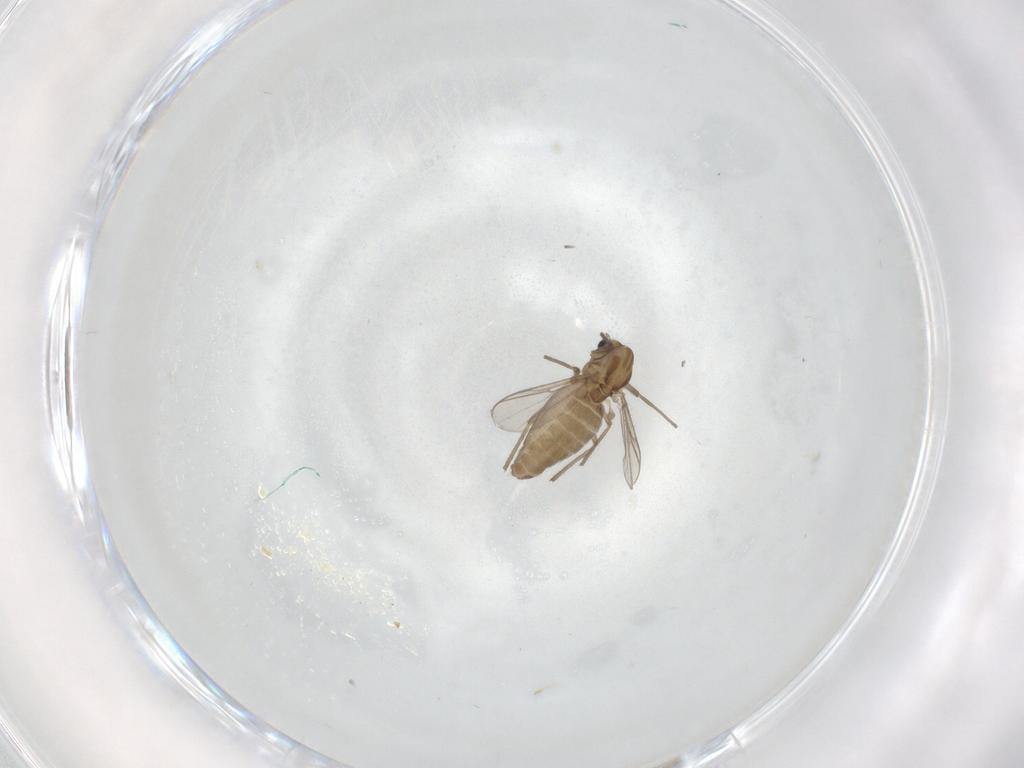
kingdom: Animalia
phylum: Arthropoda
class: Insecta
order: Diptera
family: Chironomidae
